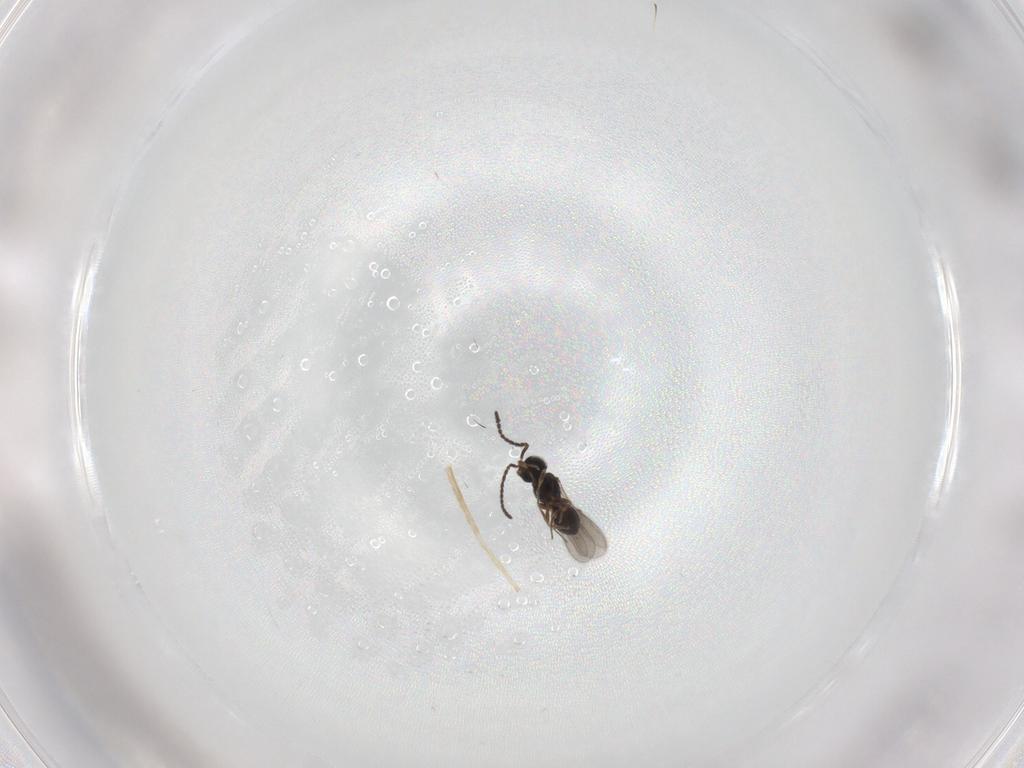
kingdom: Animalia
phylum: Arthropoda
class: Insecta
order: Hymenoptera
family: Scelionidae
